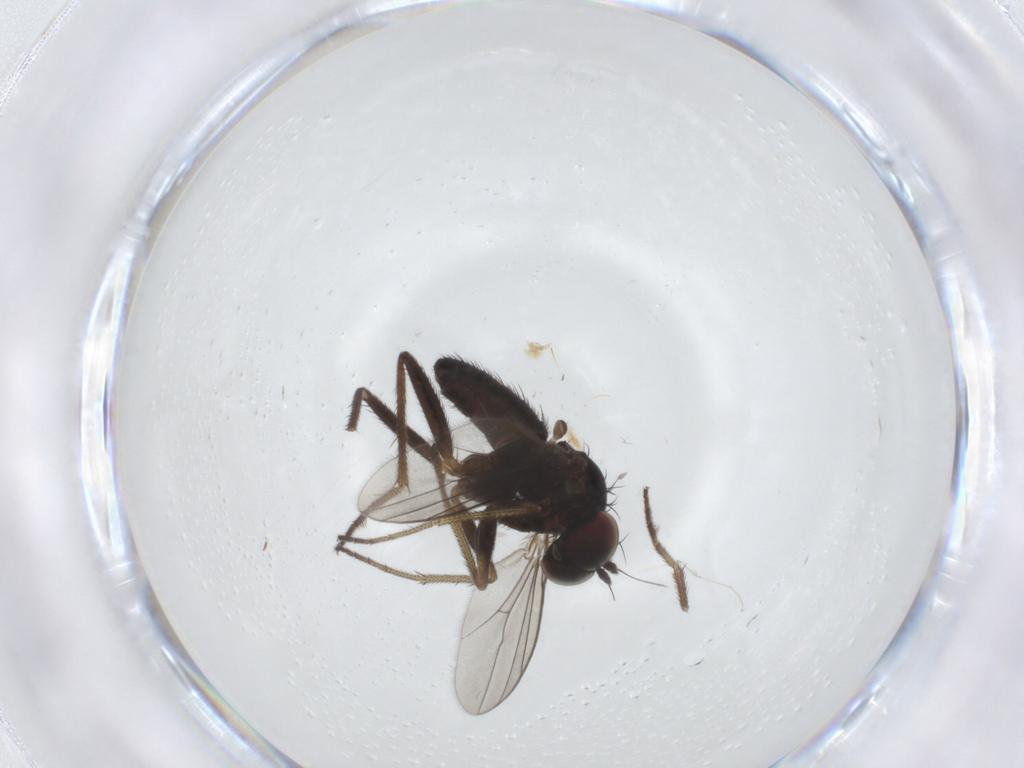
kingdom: Animalia
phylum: Arthropoda
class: Insecta
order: Diptera
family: Dolichopodidae
